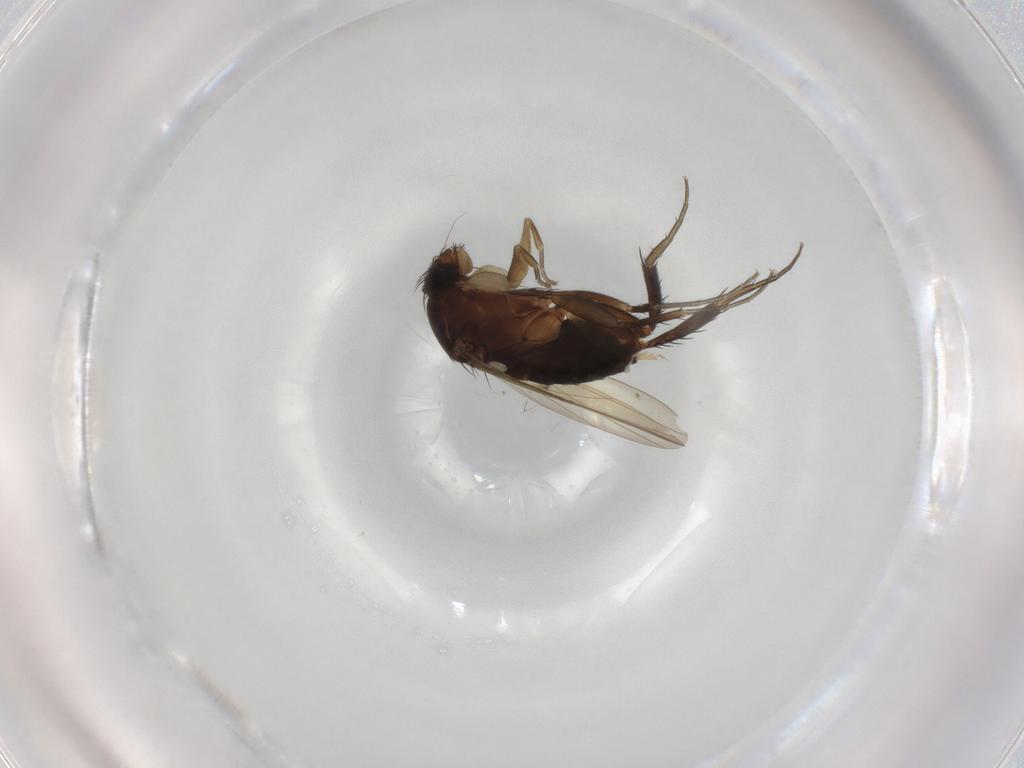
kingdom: Animalia
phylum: Arthropoda
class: Insecta
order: Diptera
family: Phoridae
